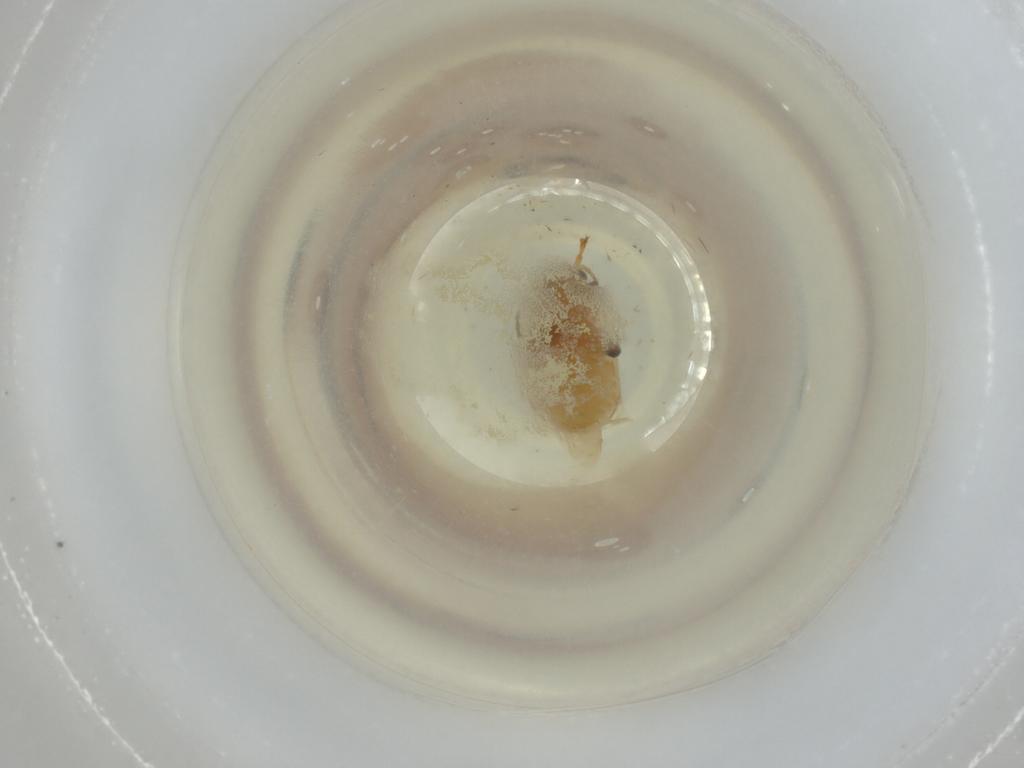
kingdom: Animalia
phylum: Arthropoda
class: Insecta
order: Coleoptera
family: Chrysomelidae
